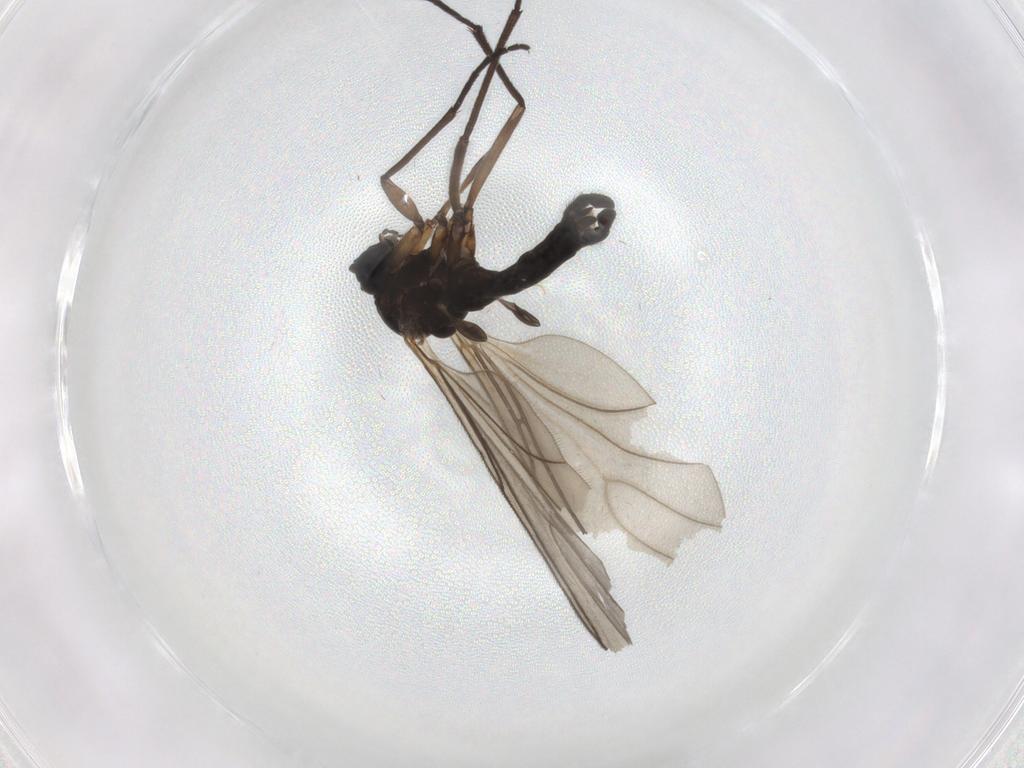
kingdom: Animalia
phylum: Arthropoda
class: Insecta
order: Diptera
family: Sciaridae
